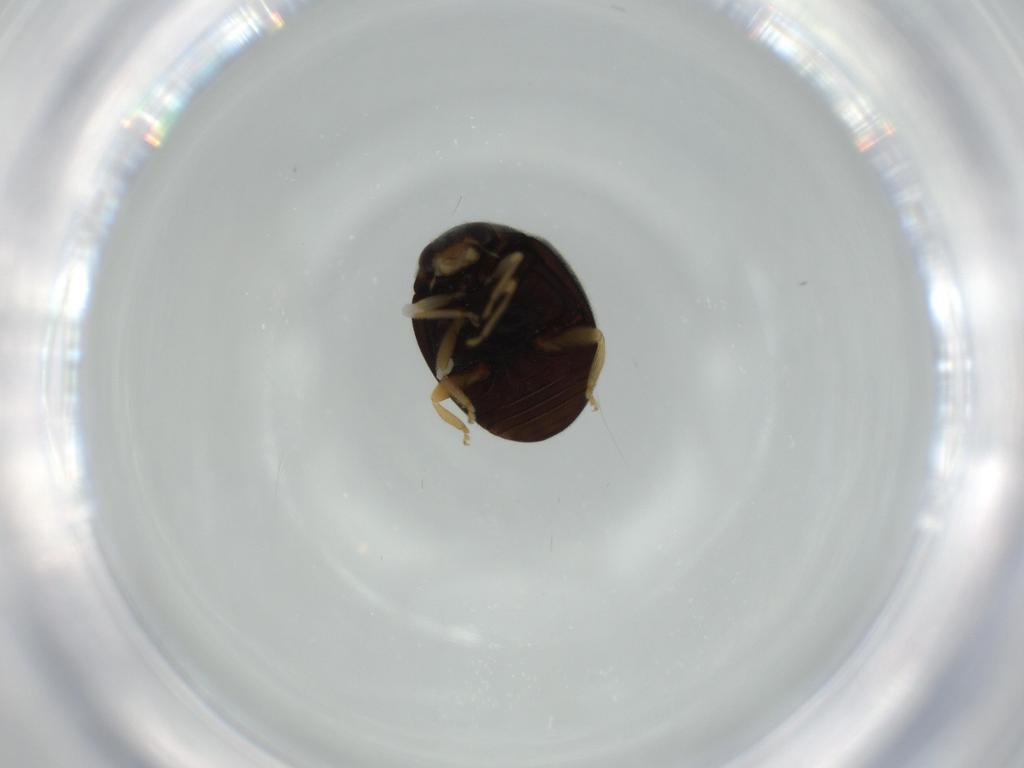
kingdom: Animalia
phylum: Arthropoda
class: Insecta
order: Coleoptera
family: Coccinellidae
